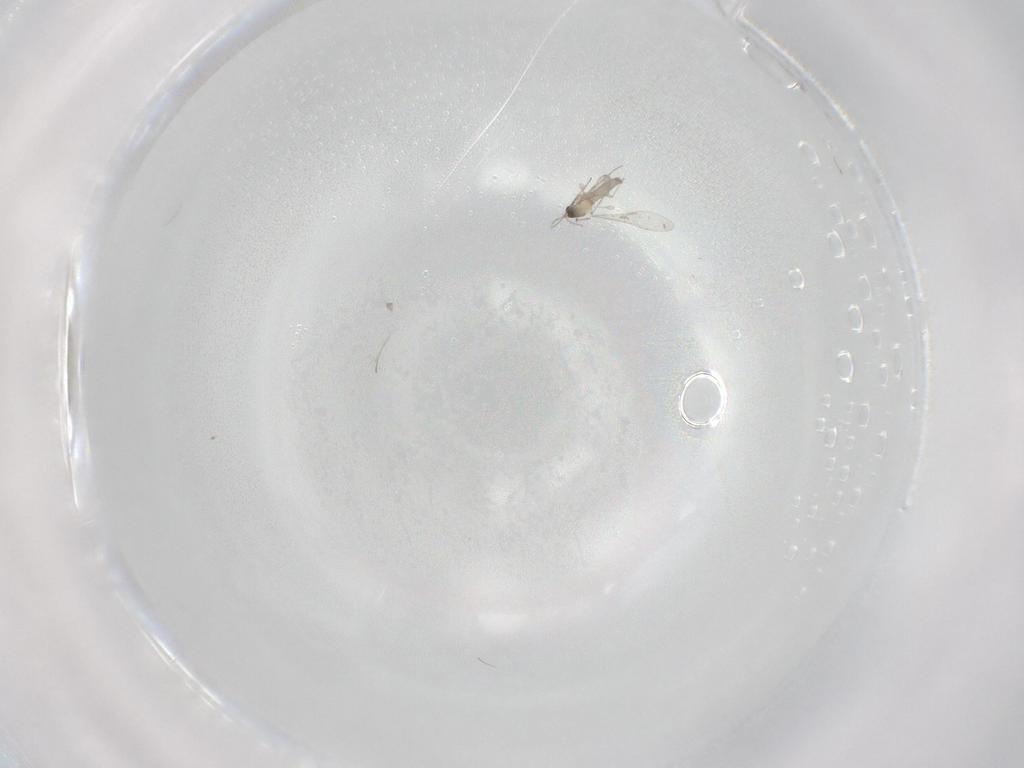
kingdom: Animalia
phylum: Arthropoda
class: Insecta
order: Diptera
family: Cecidomyiidae
